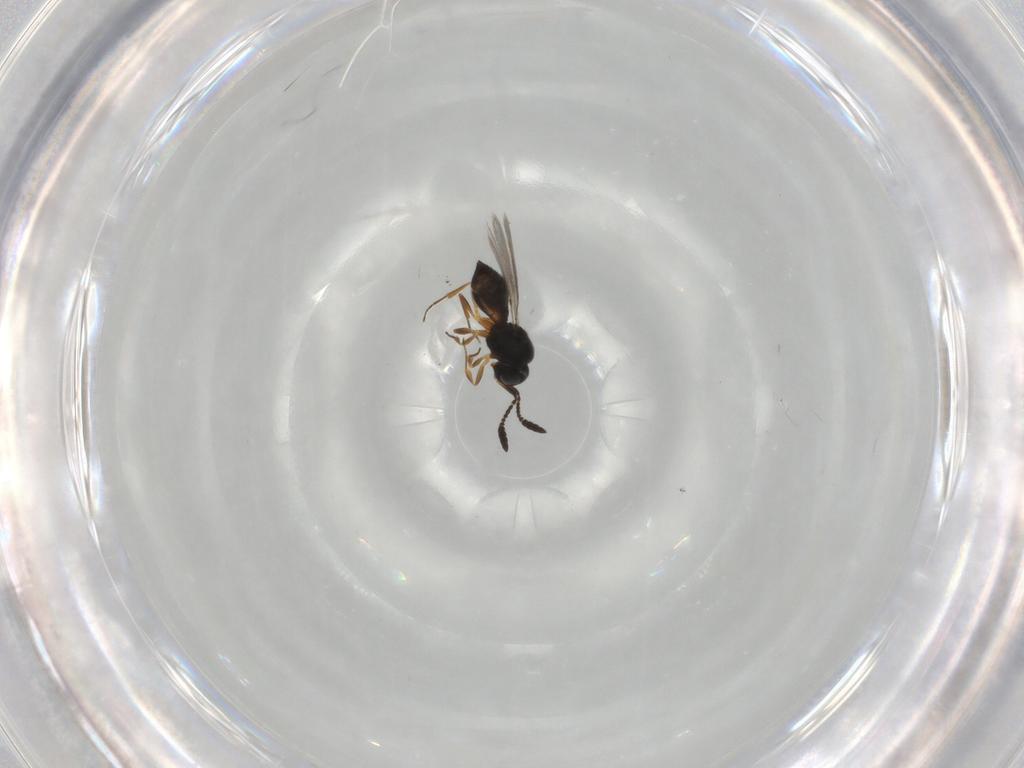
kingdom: Animalia
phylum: Arthropoda
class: Insecta
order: Hymenoptera
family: Scelionidae
